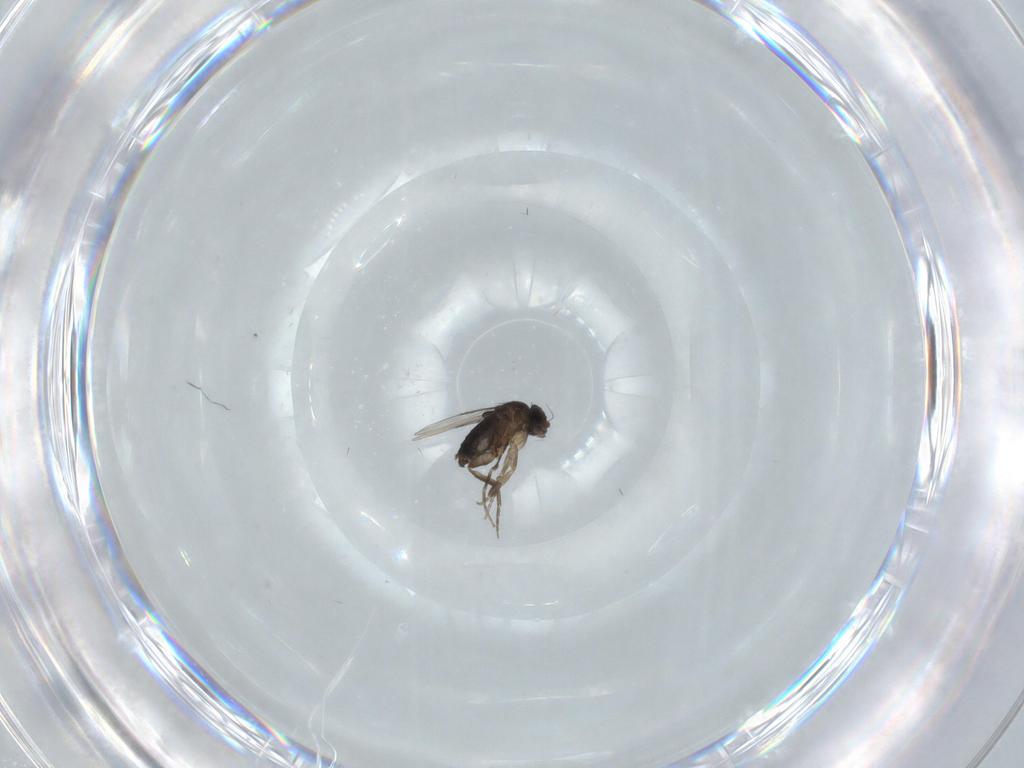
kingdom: Animalia
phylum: Arthropoda
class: Insecta
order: Diptera
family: Phoridae
